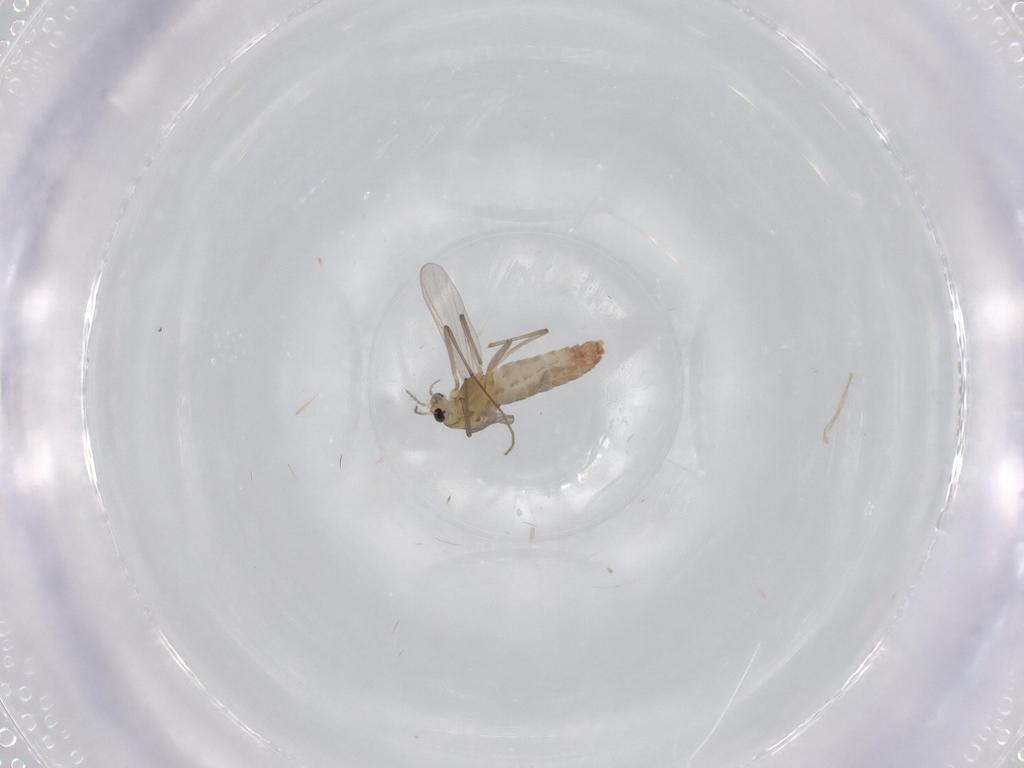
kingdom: Animalia
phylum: Arthropoda
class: Insecta
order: Diptera
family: Chironomidae
